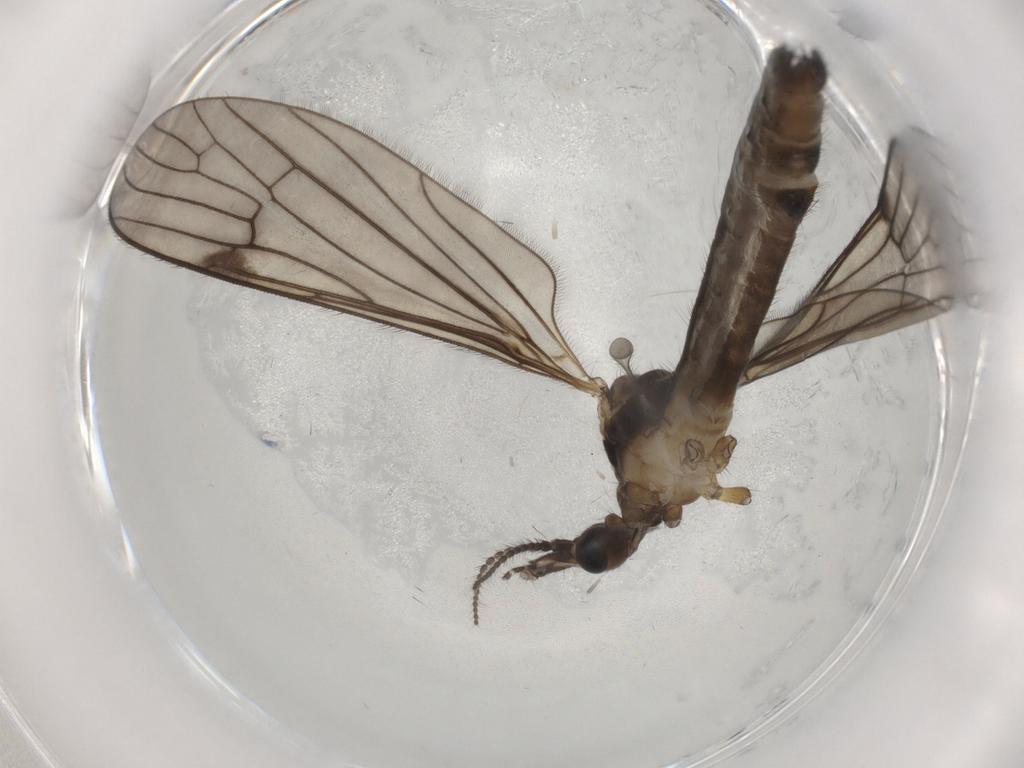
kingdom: Animalia
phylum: Arthropoda
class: Insecta
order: Diptera
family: Limoniidae
